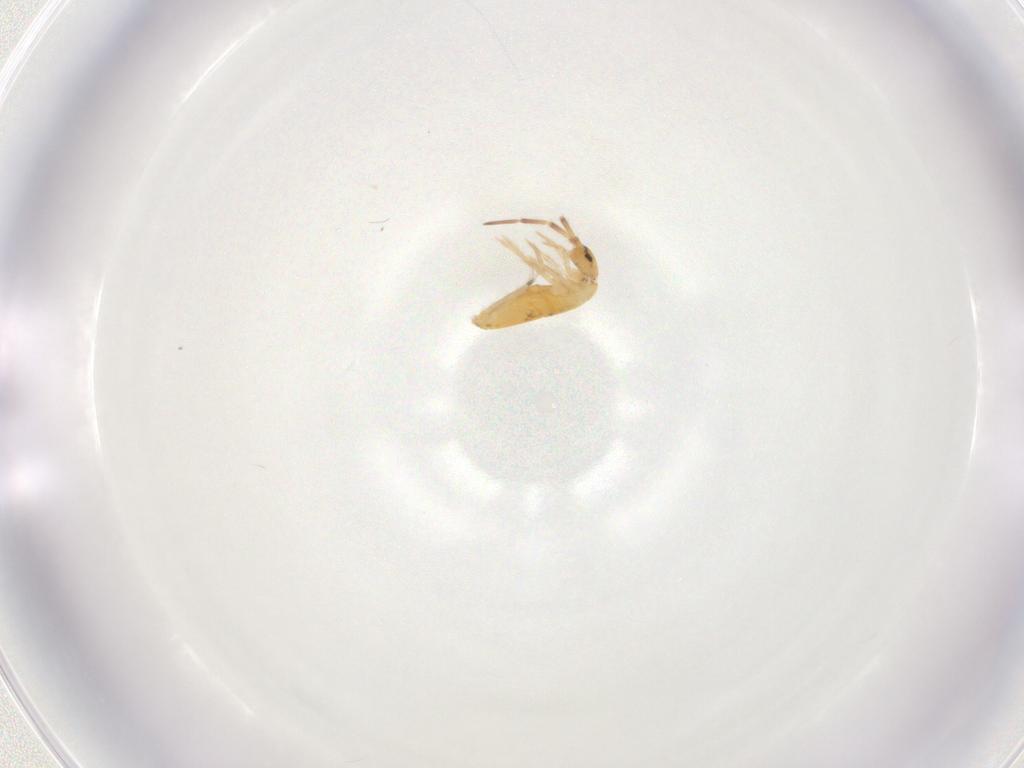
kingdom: Animalia
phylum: Arthropoda
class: Collembola
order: Entomobryomorpha
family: Entomobryidae
